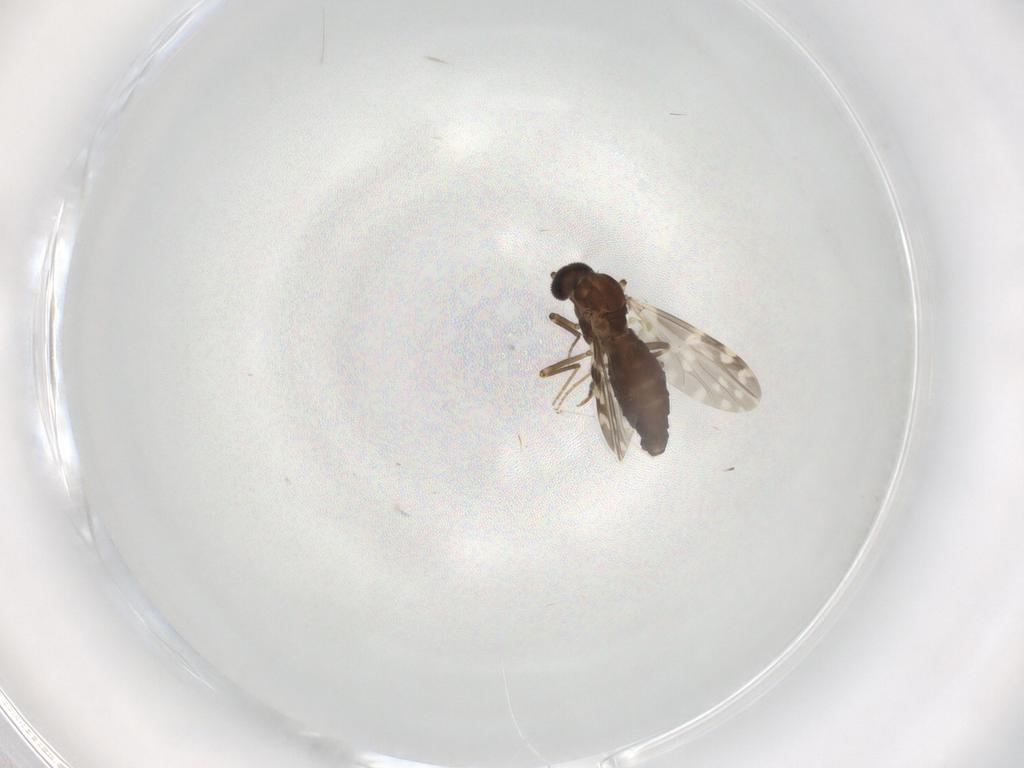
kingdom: Animalia
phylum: Arthropoda
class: Insecta
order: Diptera
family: Ceratopogonidae
